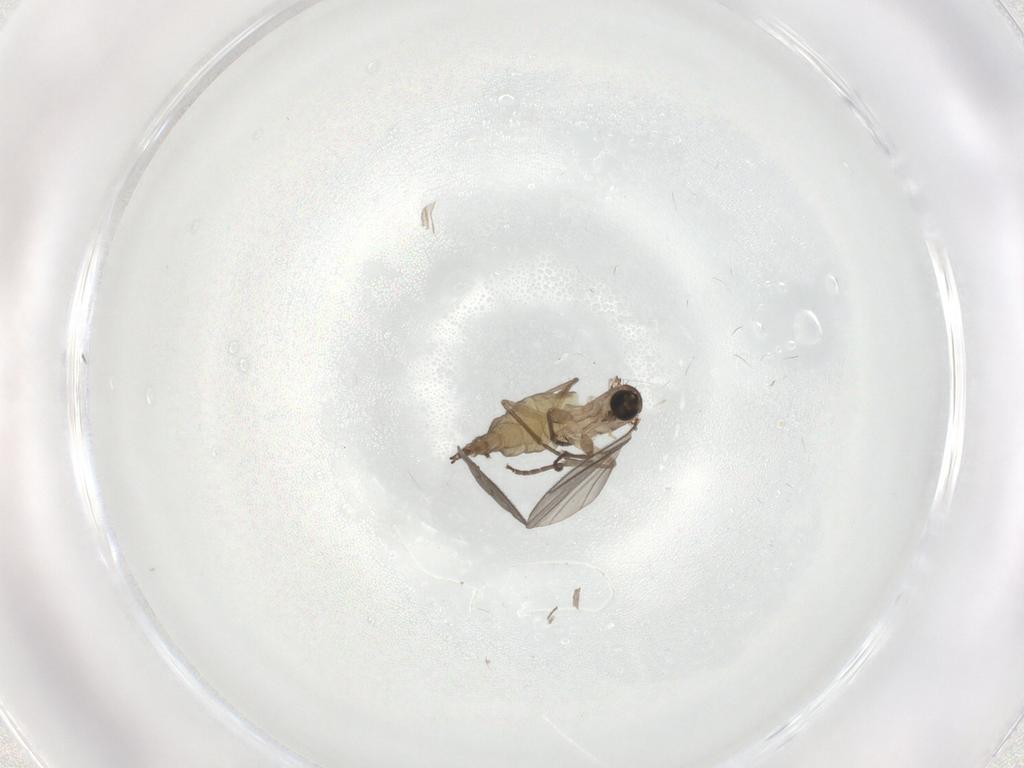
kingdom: Animalia
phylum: Arthropoda
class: Insecta
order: Diptera
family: Sciaridae
